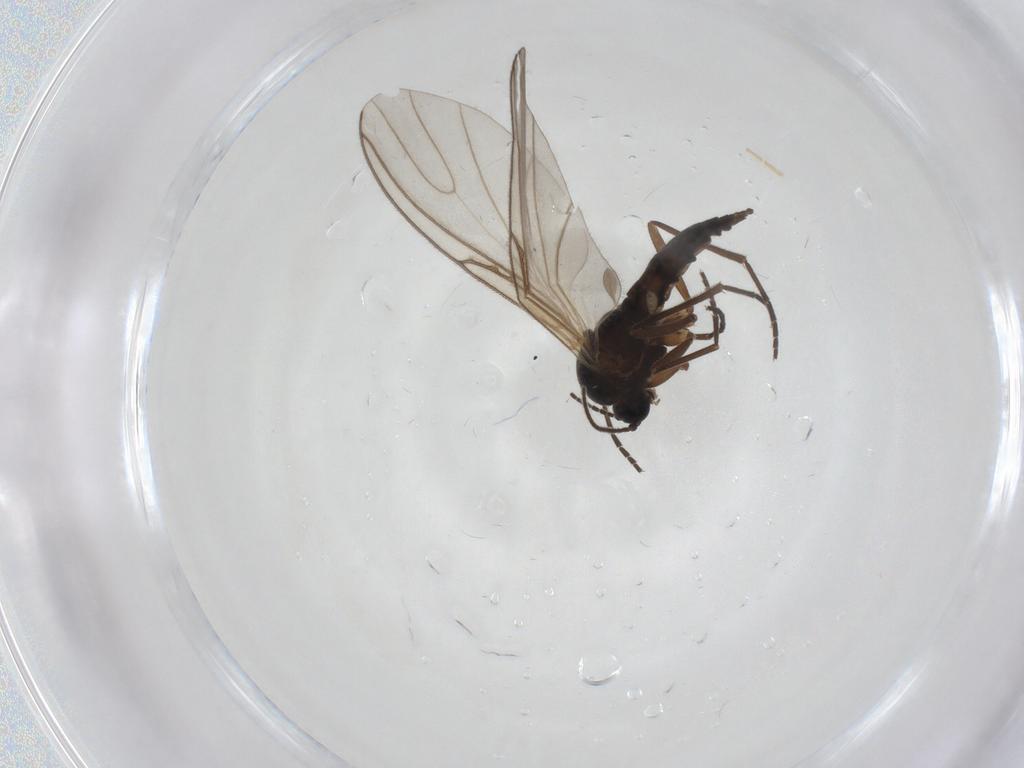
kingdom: Animalia
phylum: Arthropoda
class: Insecta
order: Diptera
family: Sciaridae
